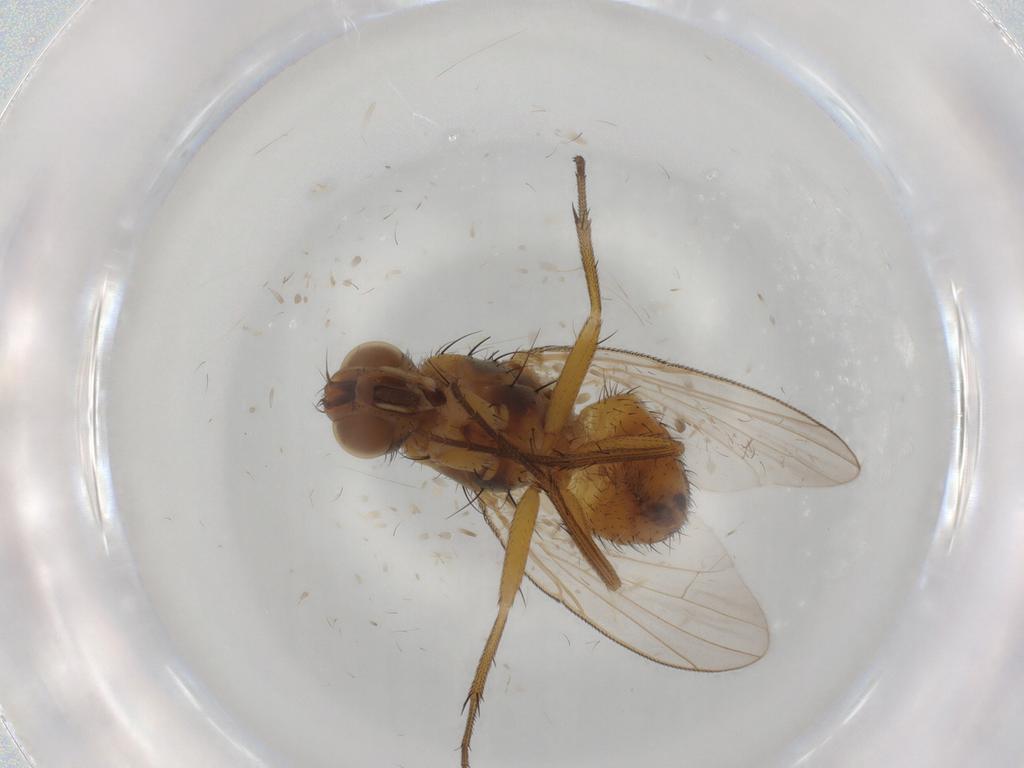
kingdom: Animalia
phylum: Arthropoda
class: Insecta
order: Diptera
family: Muscidae
